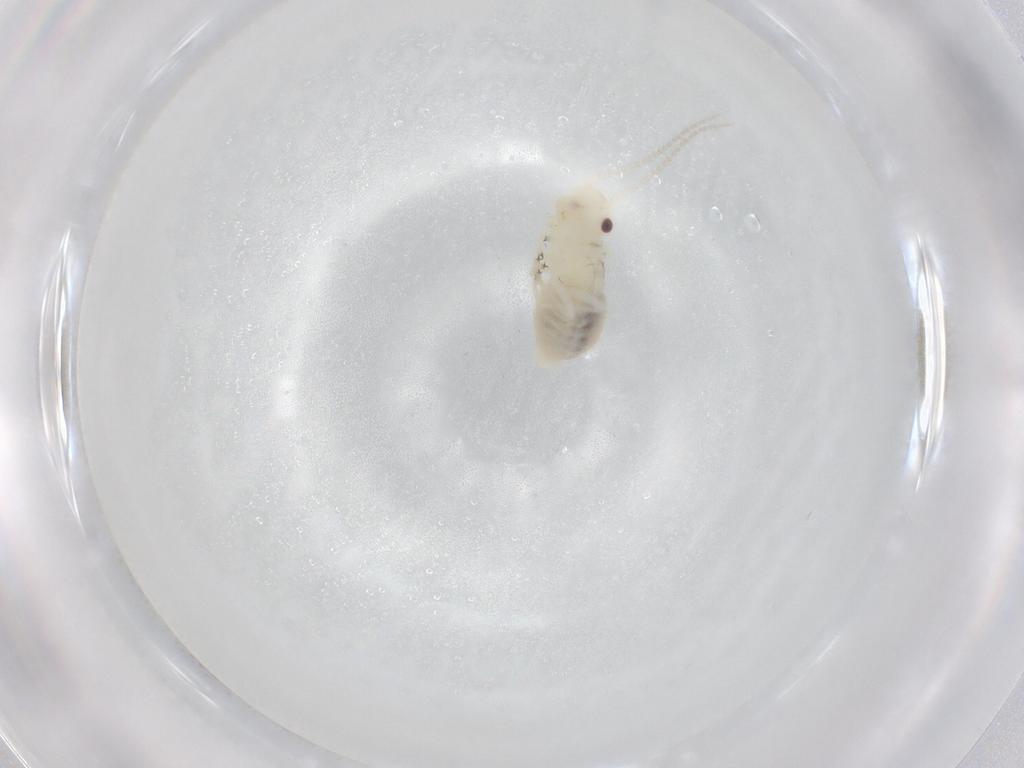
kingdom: Animalia
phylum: Arthropoda
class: Insecta
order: Psocodea
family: Amphipsocidae
